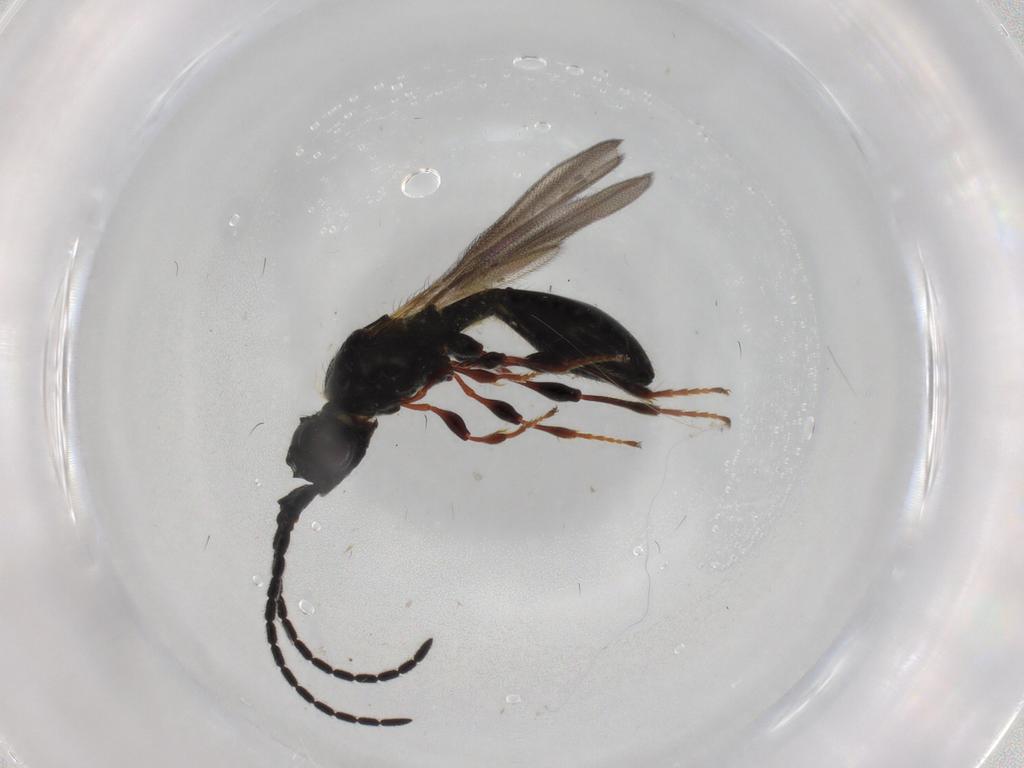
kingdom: Animalia
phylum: Arthropoda
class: Insecta
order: Hymenoptera
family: Diapriidae
